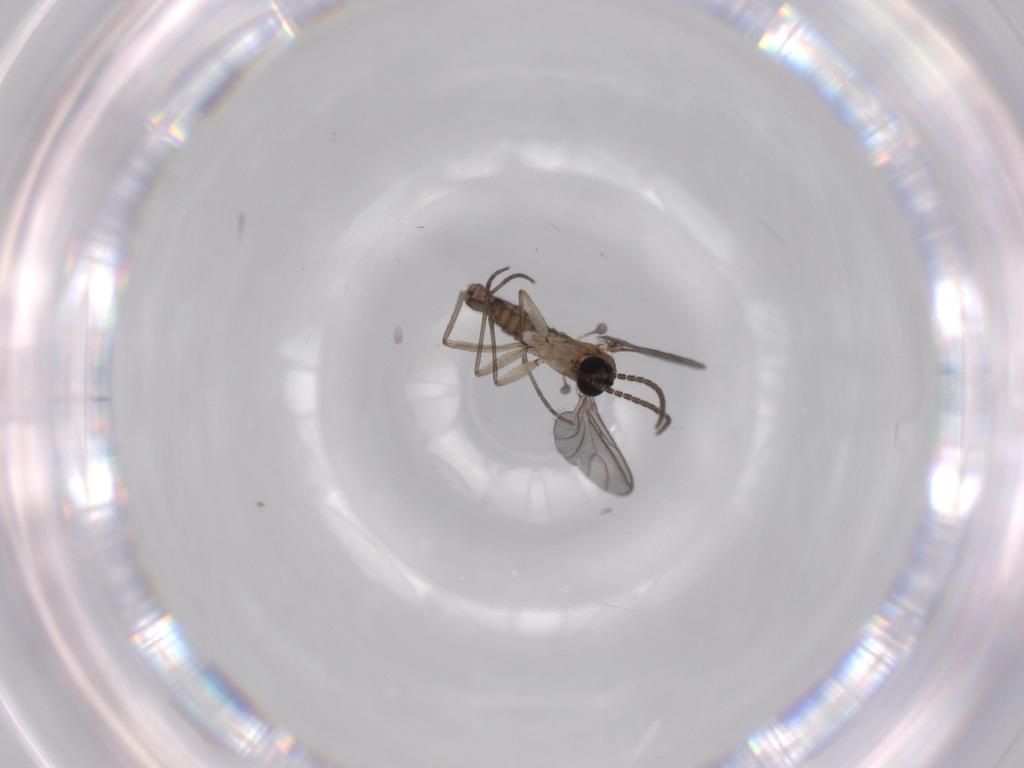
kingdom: Animalia
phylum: Arthropoda
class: Insecta
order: Diptera
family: Sciaridae
